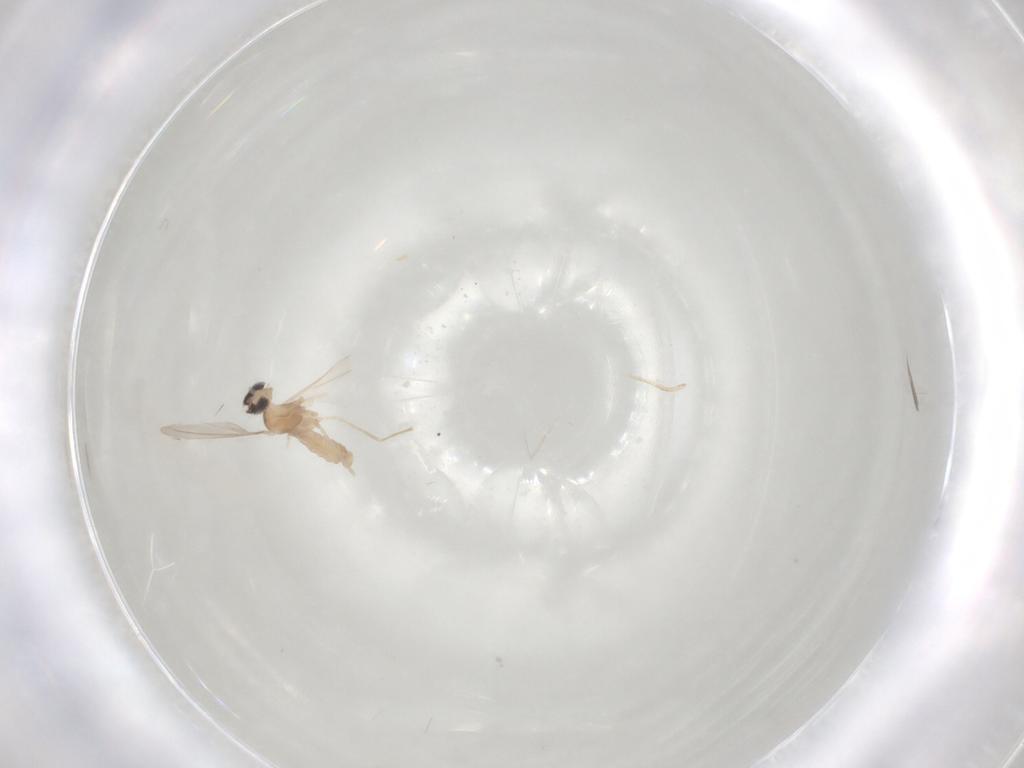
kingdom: Animalia
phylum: Arthropoda
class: Insecta
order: Diptera
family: Cecidomyiidae
